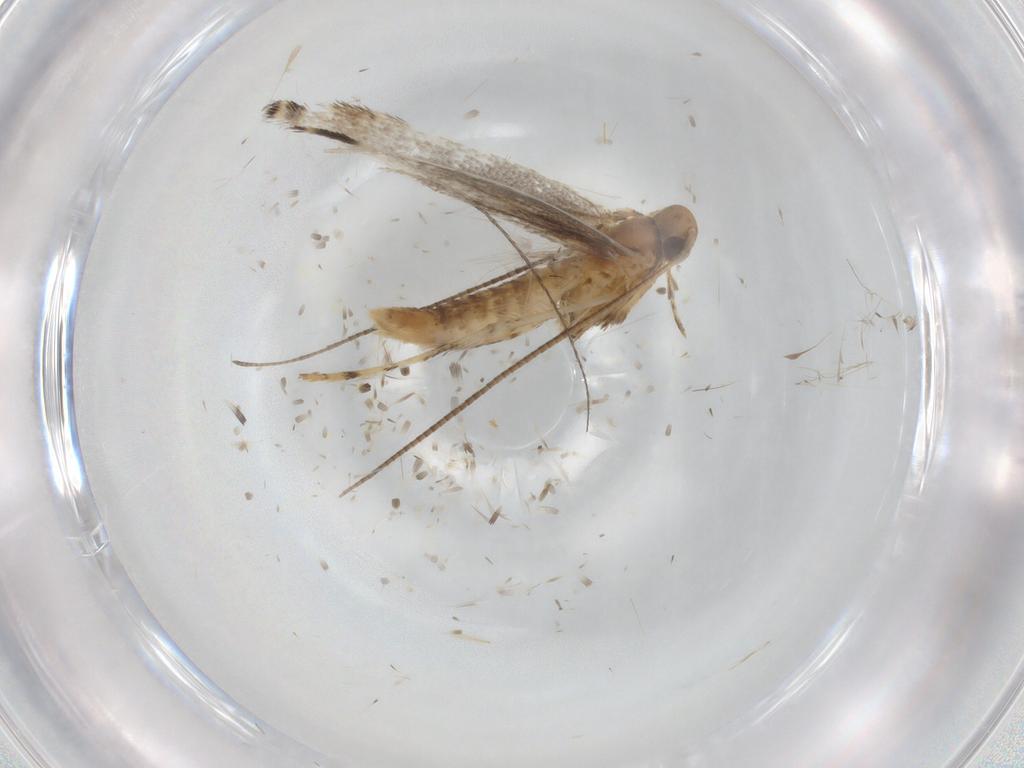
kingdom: Animalia
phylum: Arthropoda
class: Insecta
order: Lepidoptera
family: Gracillariidae
